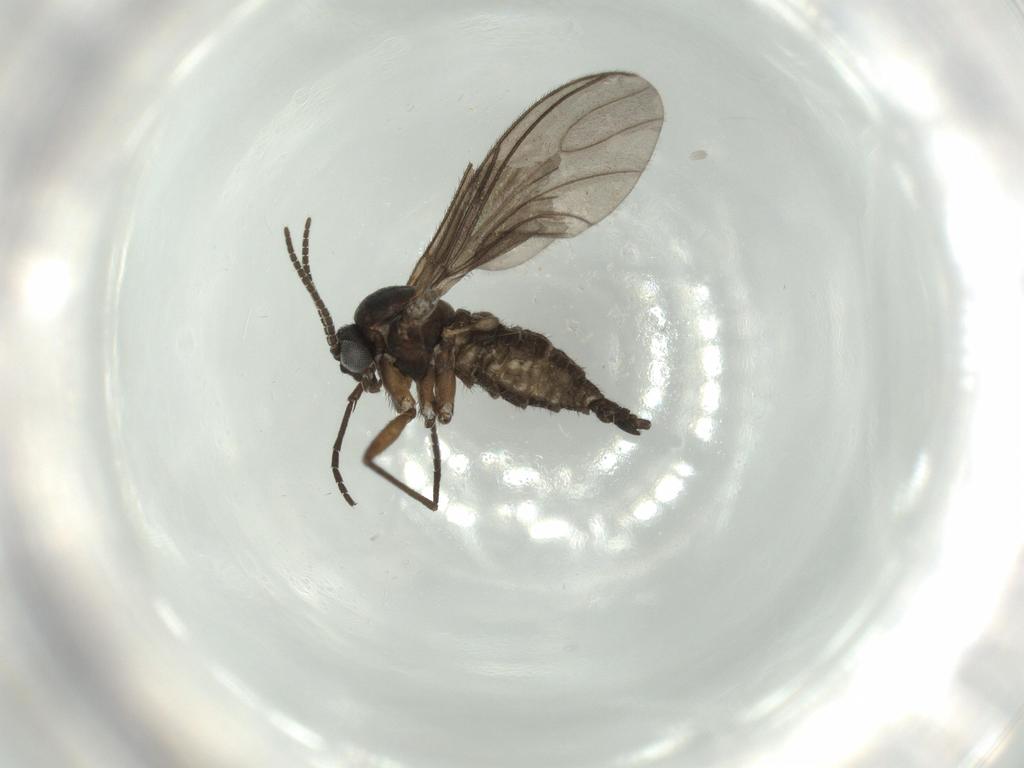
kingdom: Animalia
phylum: Arthropoda
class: Insecta
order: Diptera
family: Sciaridae
